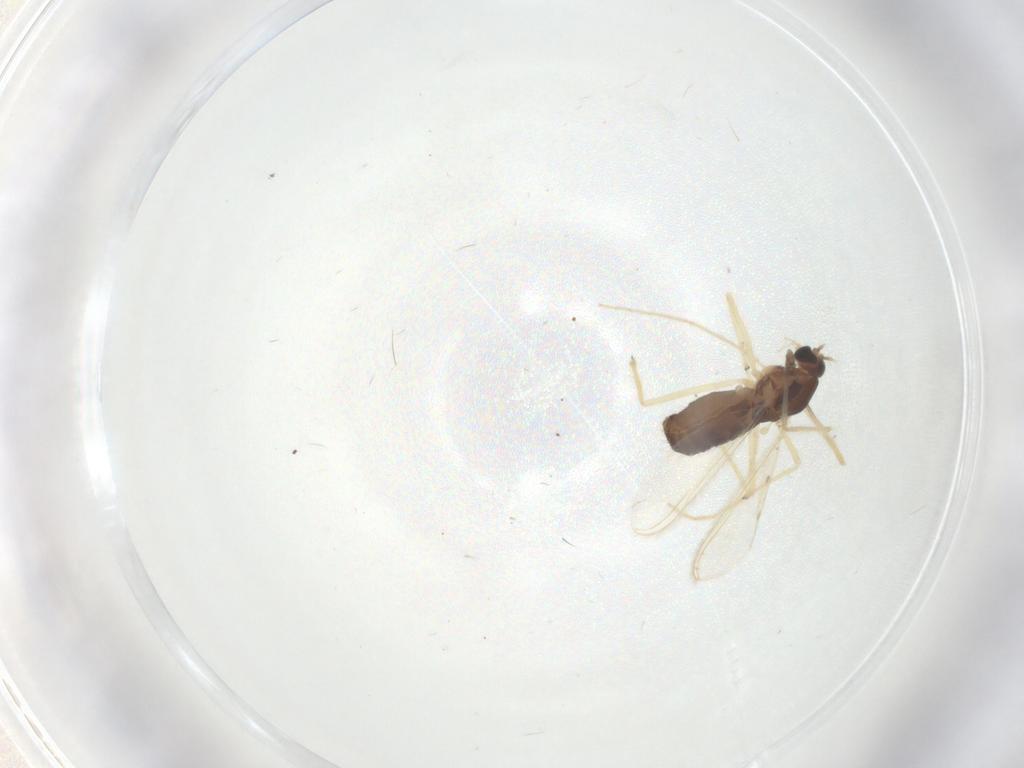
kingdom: Animalia
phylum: Arthropoda
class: Insecta
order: Diptera
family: Chironomidae
